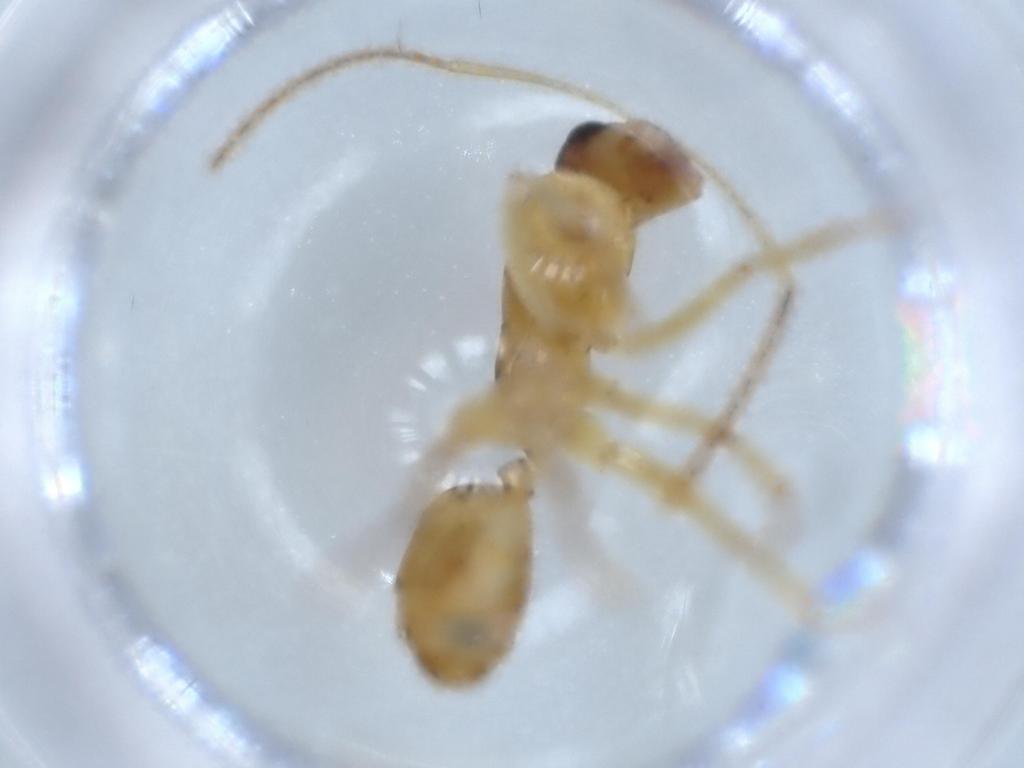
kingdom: Animalia
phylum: Arthropoda
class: Insecta
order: Hymenoptera
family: Formicidae
